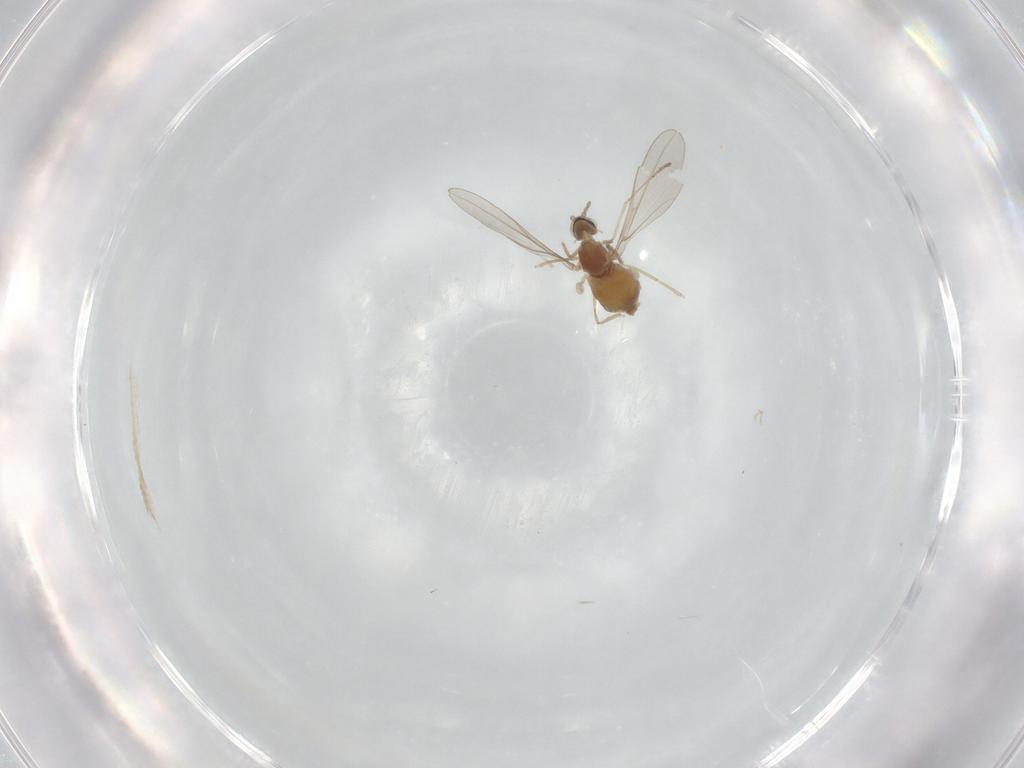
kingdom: Animalia
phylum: Arthropoda
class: Insecta
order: Diptera
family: Cecidomyiidae
